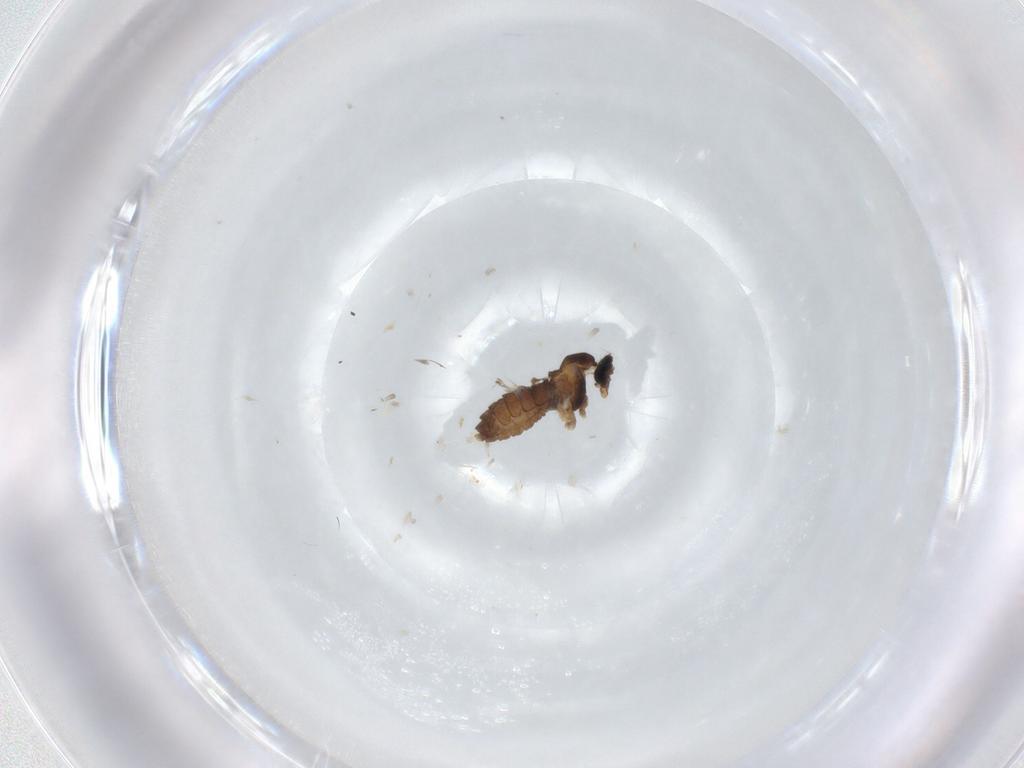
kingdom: Animalia
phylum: Arthropoda
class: Insecta
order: Diptera
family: Cecidomyiidae
